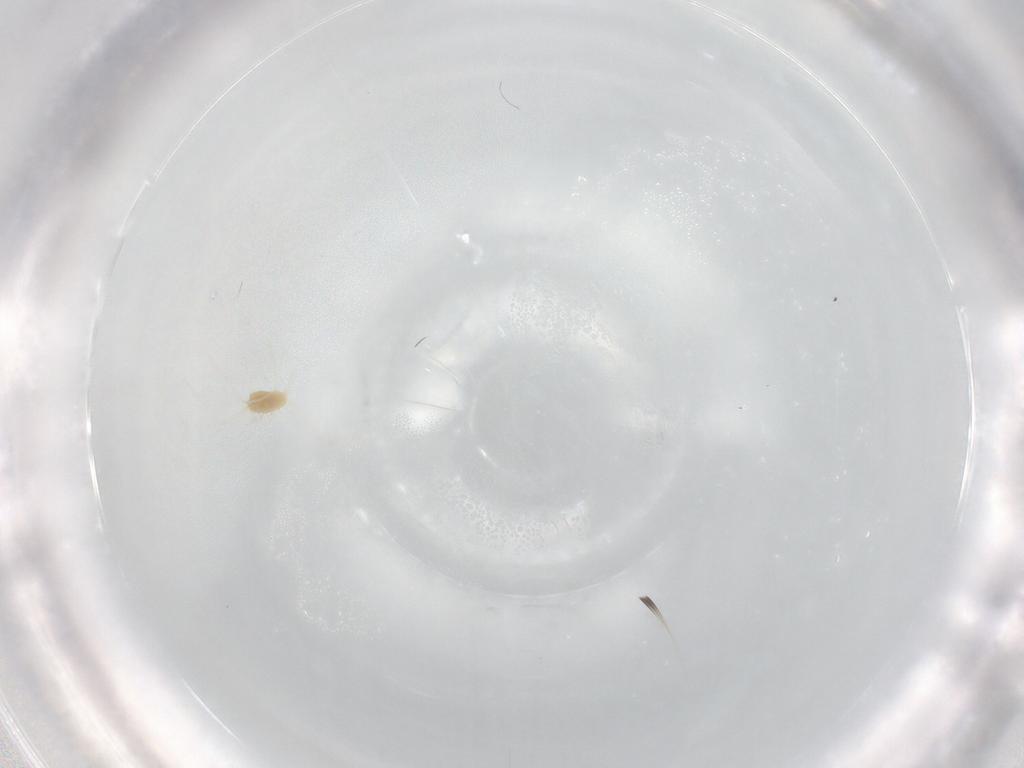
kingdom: Animalia
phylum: Arthropoda
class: Arachnida
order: Trombidiformes
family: Tetranychidae
